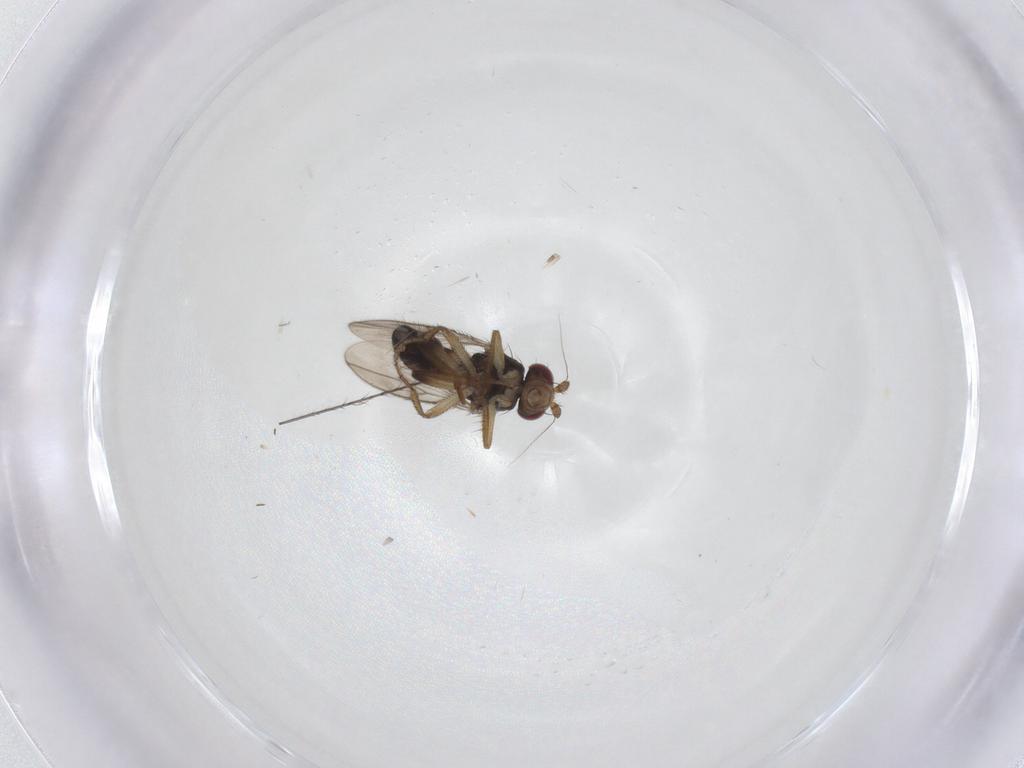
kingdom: Animalia
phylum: Arthropoda
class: Insecta
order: Diptera
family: Sphaeroceridae
